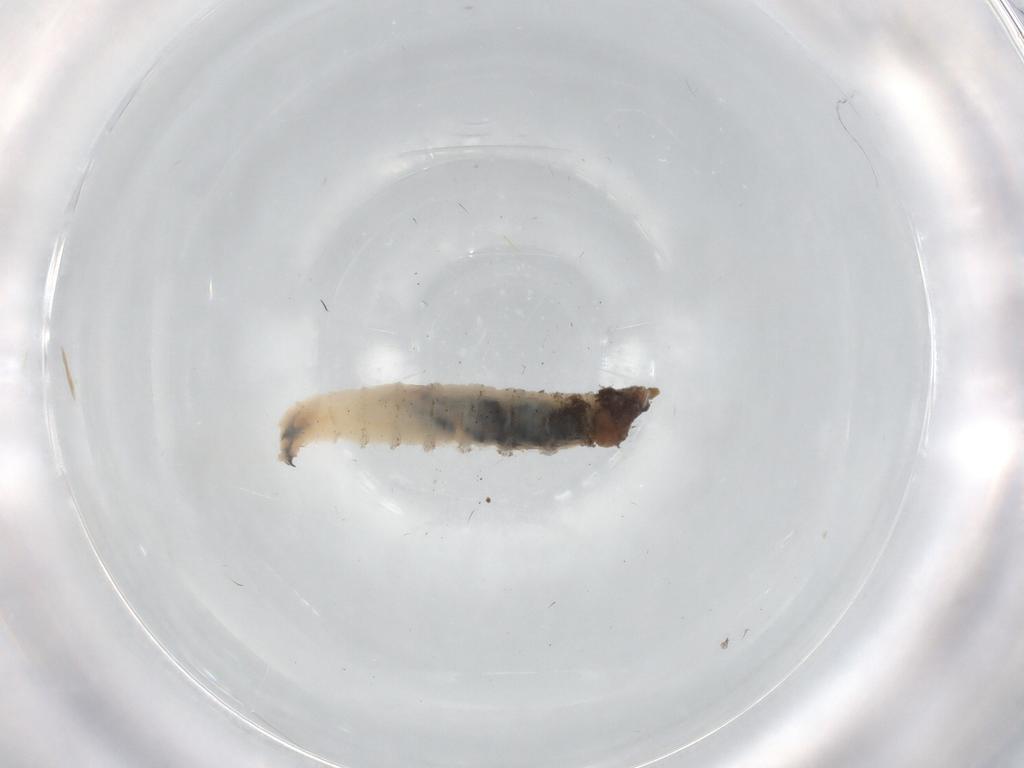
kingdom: Animalia
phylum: Arthropoda
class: Insecta
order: Diptera
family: Cecidomyiidae
